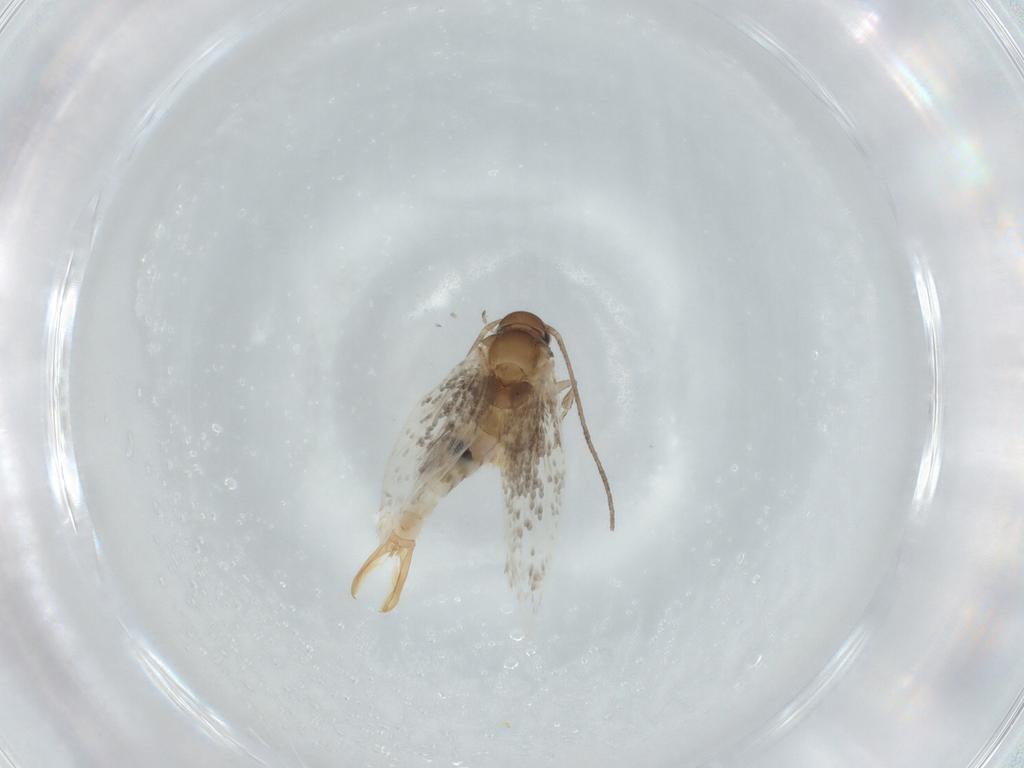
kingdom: Animalia
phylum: Arthropoda
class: Insecta
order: Lepidoptera
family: Elachistidae
